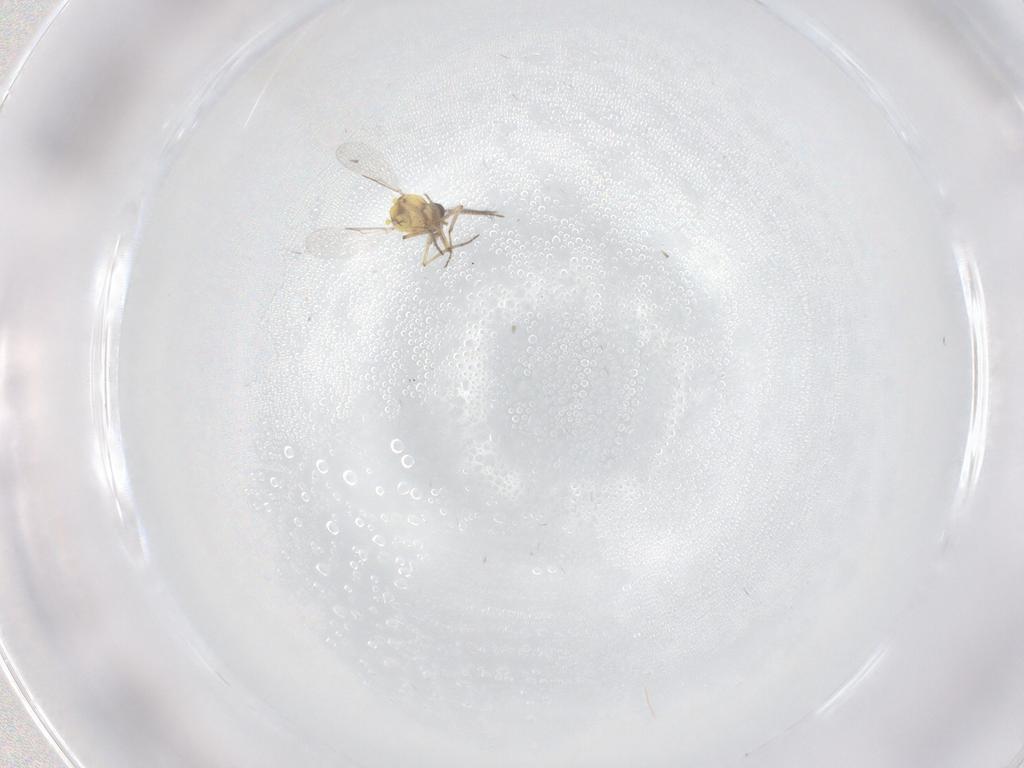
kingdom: Animalia
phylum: Arthropoda
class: Insecta
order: Diptera
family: Ceratopogonidae
